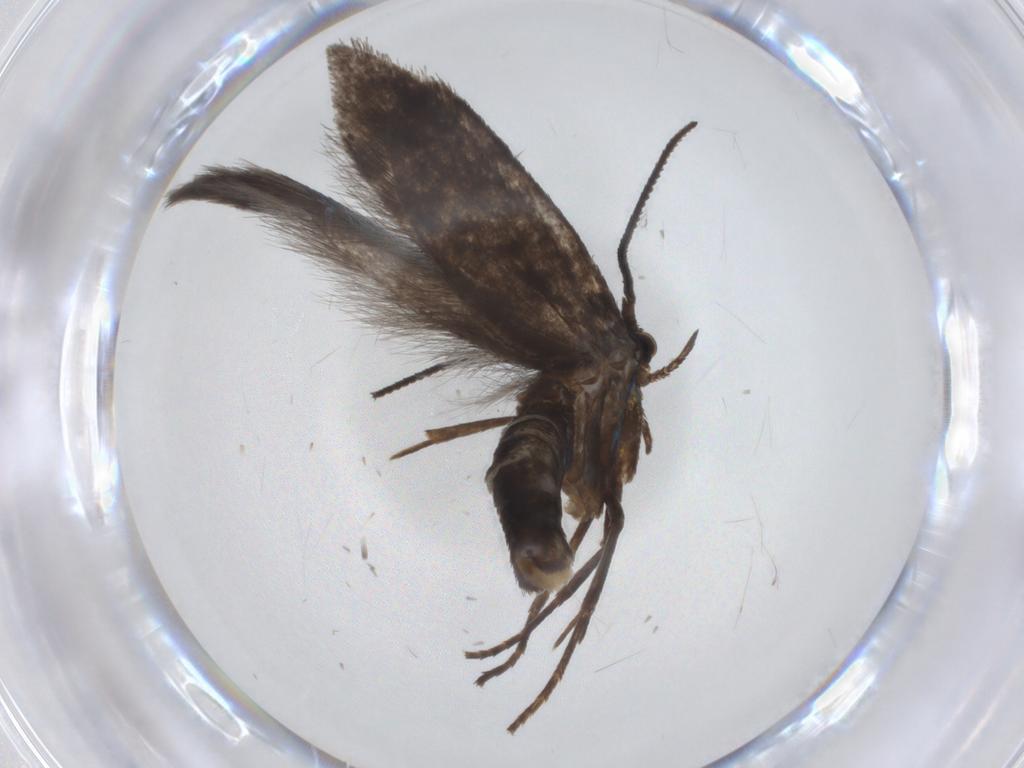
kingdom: Animalia
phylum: Arthropoda
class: Insecta
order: Lepidoptera
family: Argyresthiidae
